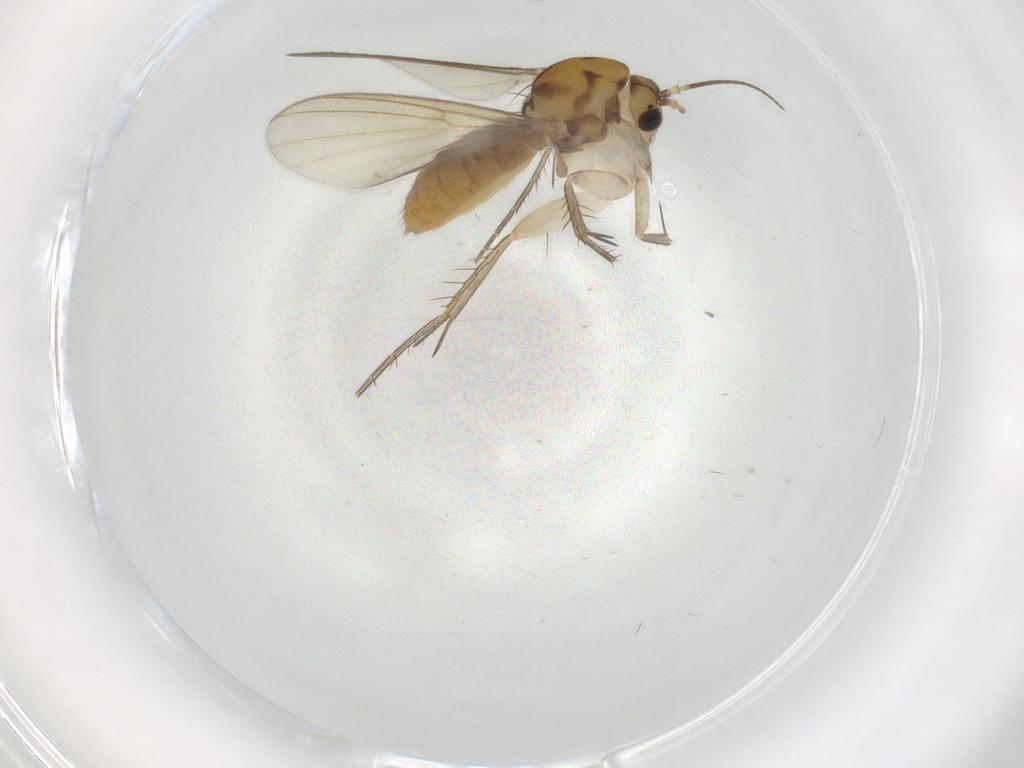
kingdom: Animalia
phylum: Arthropoda
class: Insecta
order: Diptera
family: Mycetophilidae
